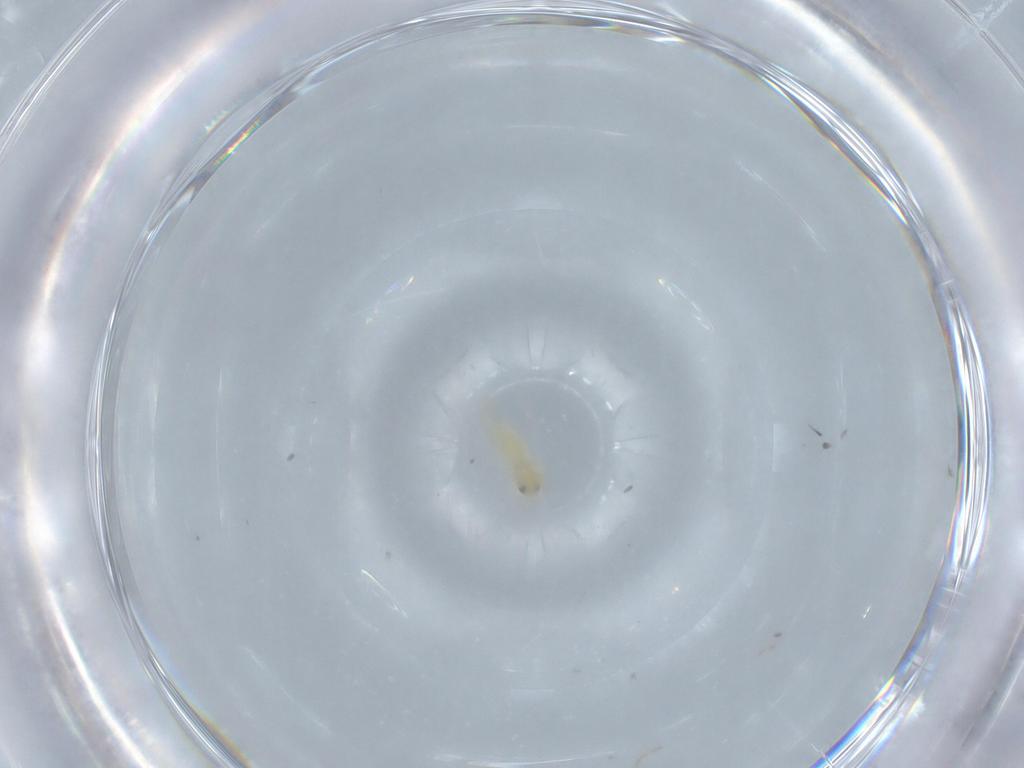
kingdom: Animalia
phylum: Arthropoda
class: Insecta
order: Hemiptera
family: Aleyrodidae
